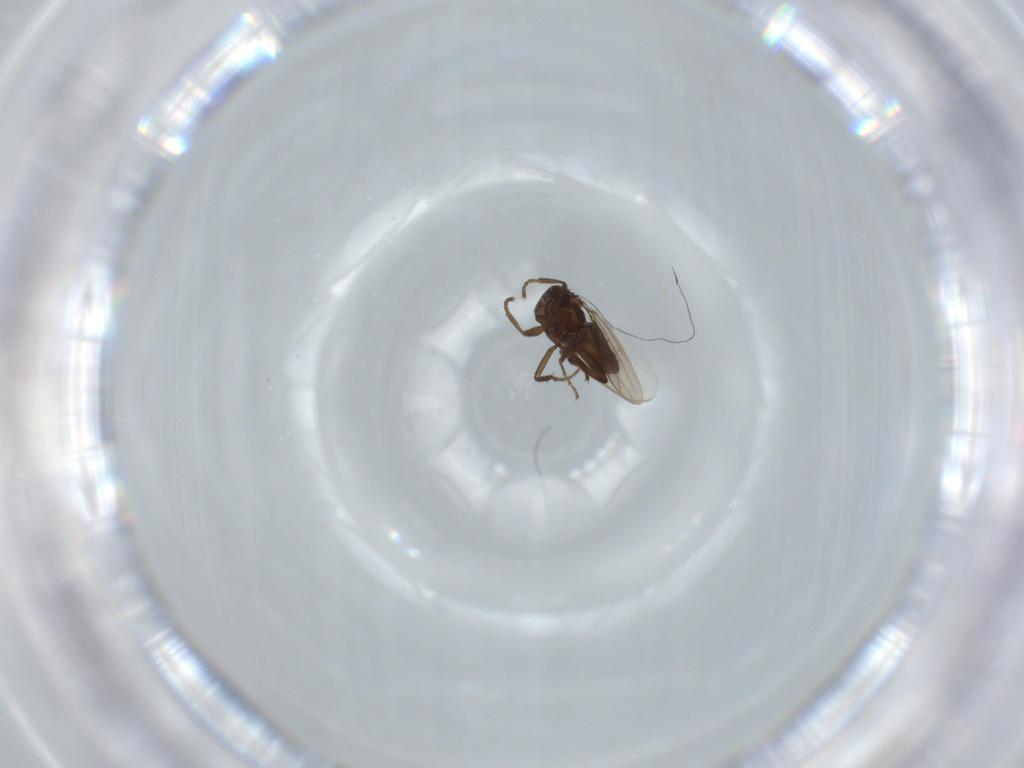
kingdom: Animalia
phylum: Arthropoda
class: Insecta
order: Diptera
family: Sphaeroceridae
